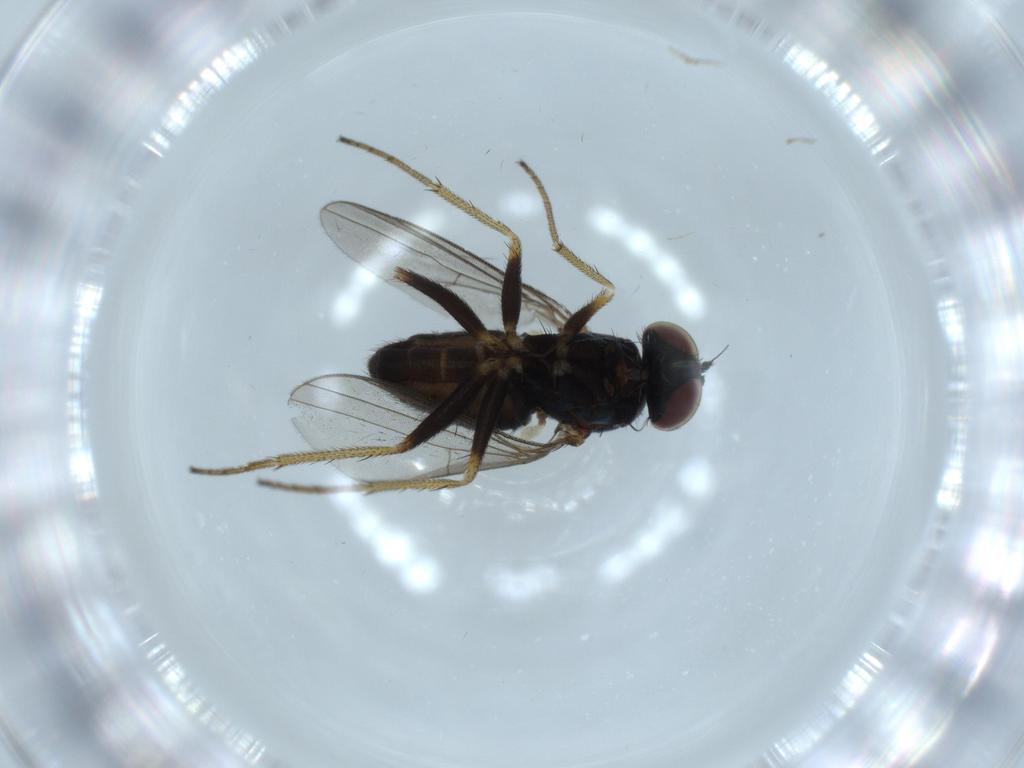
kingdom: Animalia
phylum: Arthropoda
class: Insecta
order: Diptera
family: Dolichopodidae
